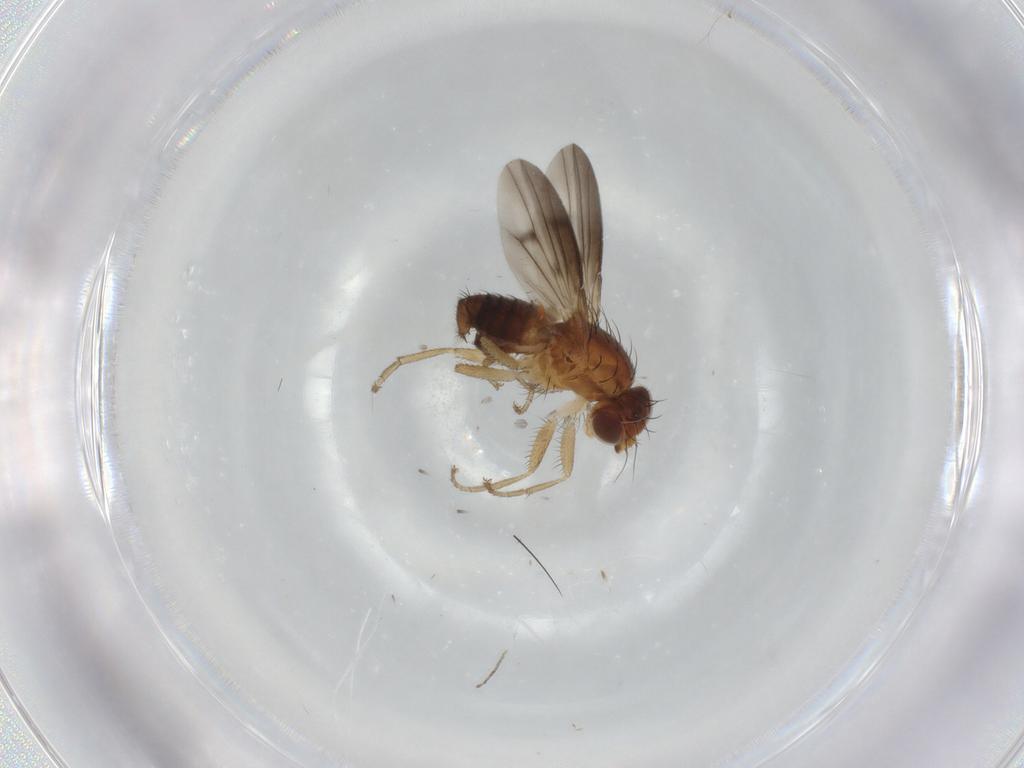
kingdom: Animalia
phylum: Arthropoda
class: Insecta
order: Diptera
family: Heleomyzidae
